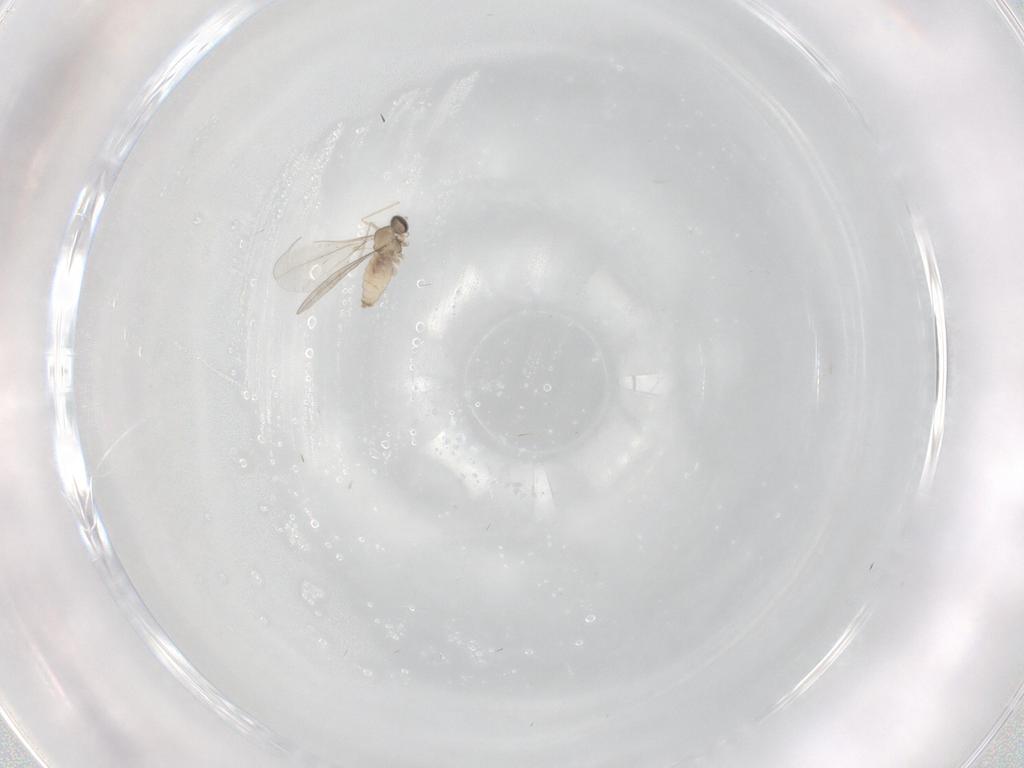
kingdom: Animalia
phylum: Arthropoda
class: Insecta
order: Diptera
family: Cecidomyiidae
